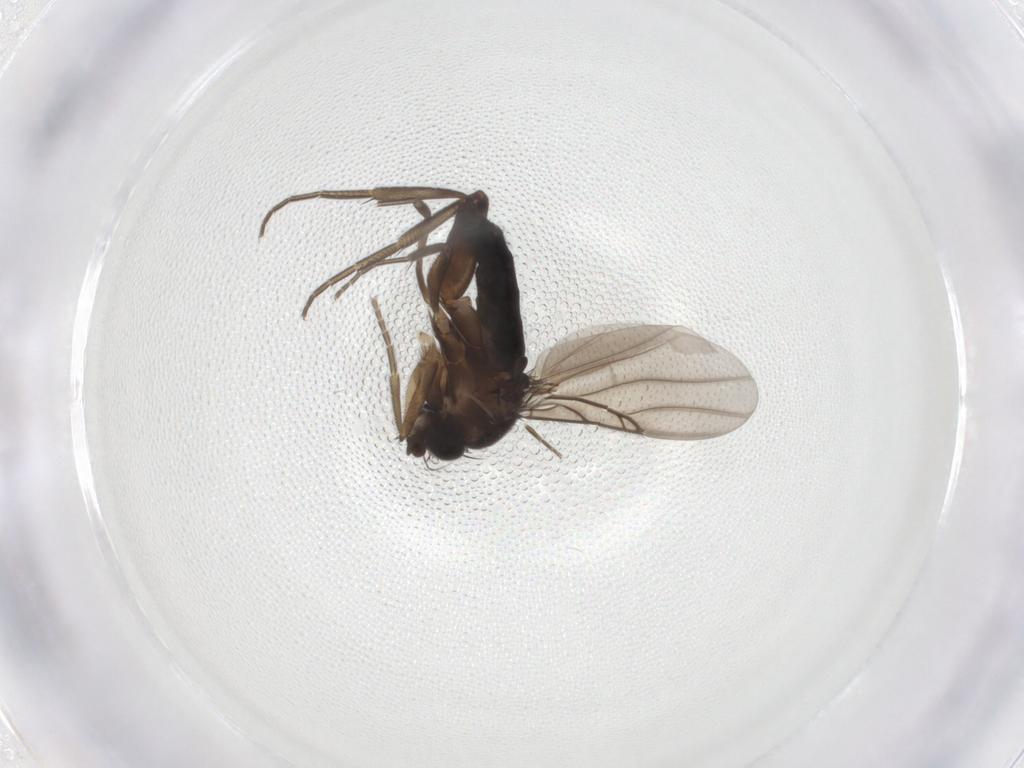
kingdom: Animalia
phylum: Arthropoda
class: Insecta
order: Diptera
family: Phoridae
